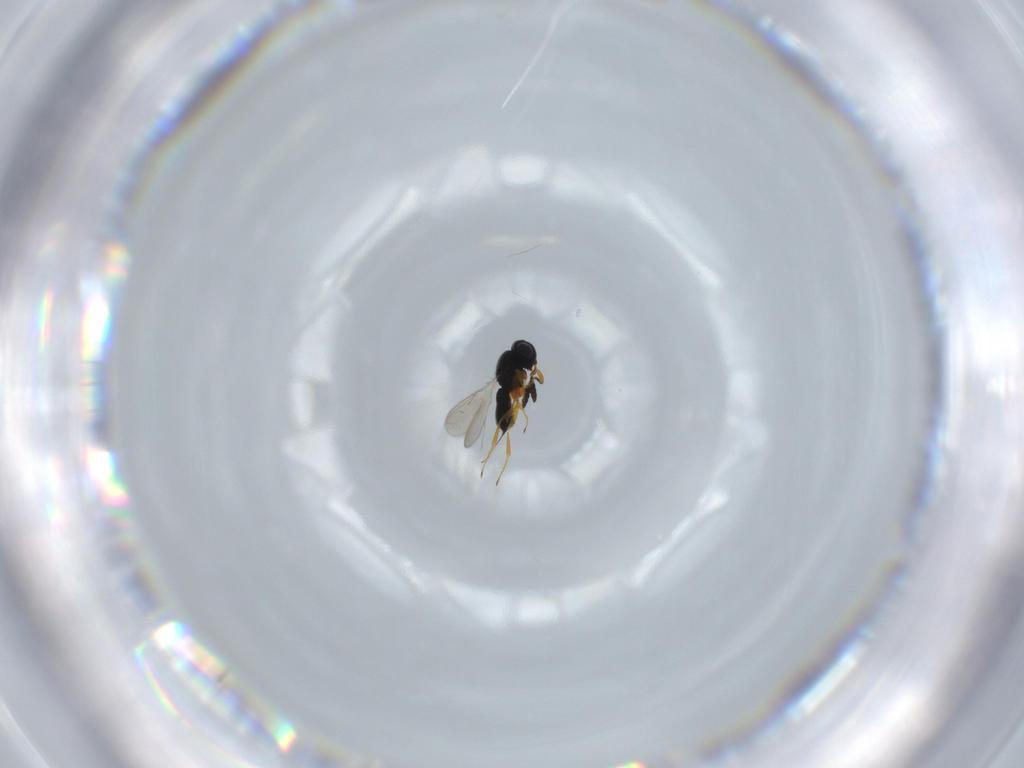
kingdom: Animalia
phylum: Arthropoda
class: Insecta
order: Hymenoptera
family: Scelionidae
